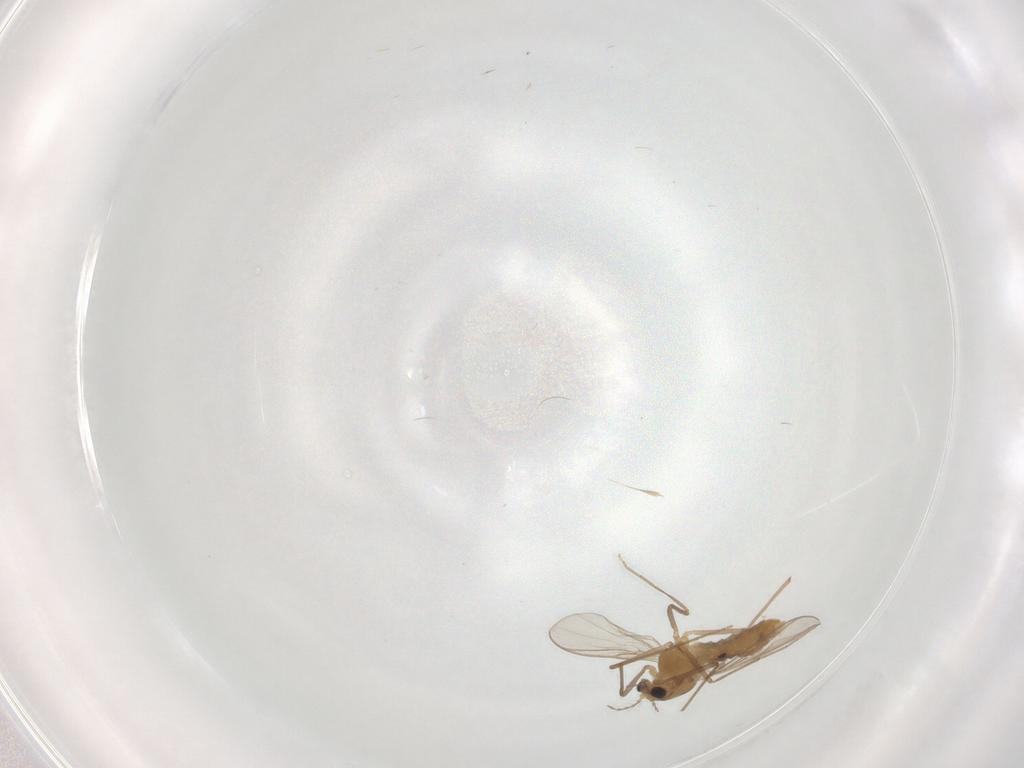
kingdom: Animalia
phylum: Arthropoda
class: Insecta
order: Diptera
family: Chironomidae
